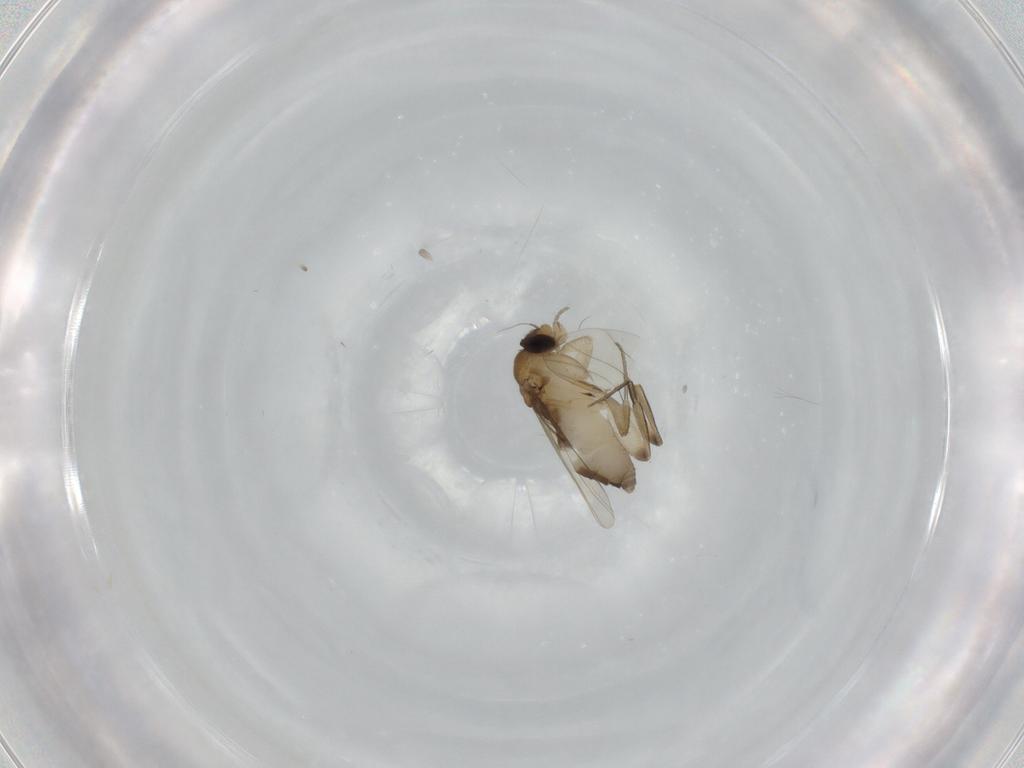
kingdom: Animalia
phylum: Arthropoda
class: Insecta
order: Diptera
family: Phoridae
